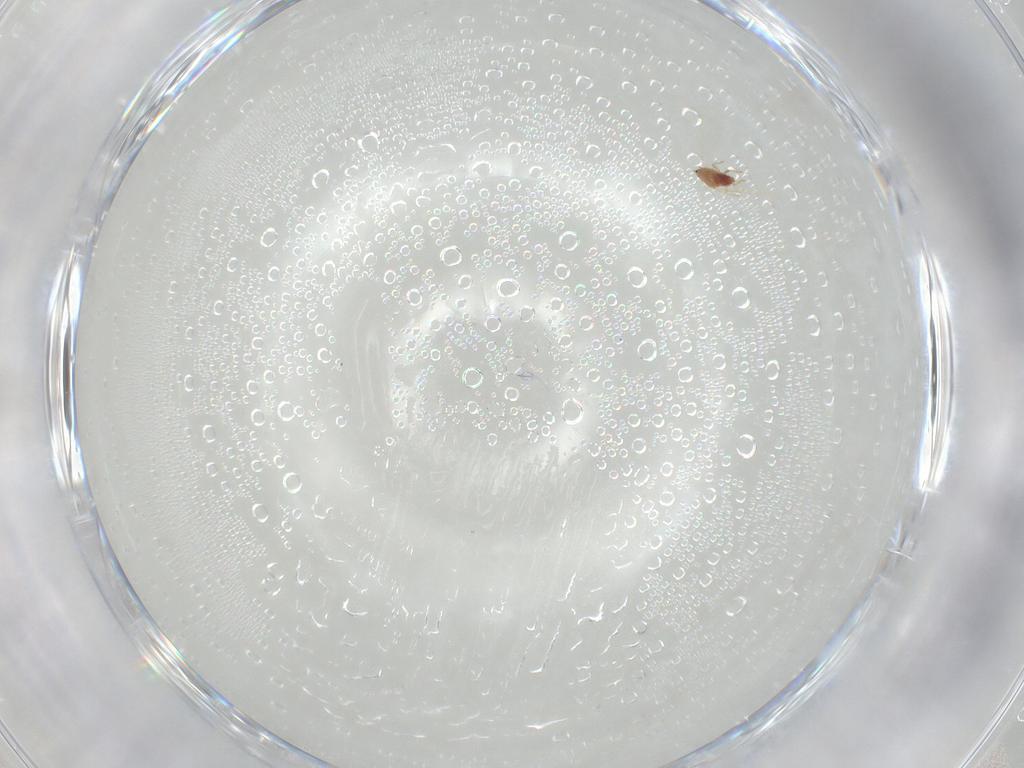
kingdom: Animalia
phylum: Arthropoda
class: Insecta
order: Diptera
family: Heleomyzidae
